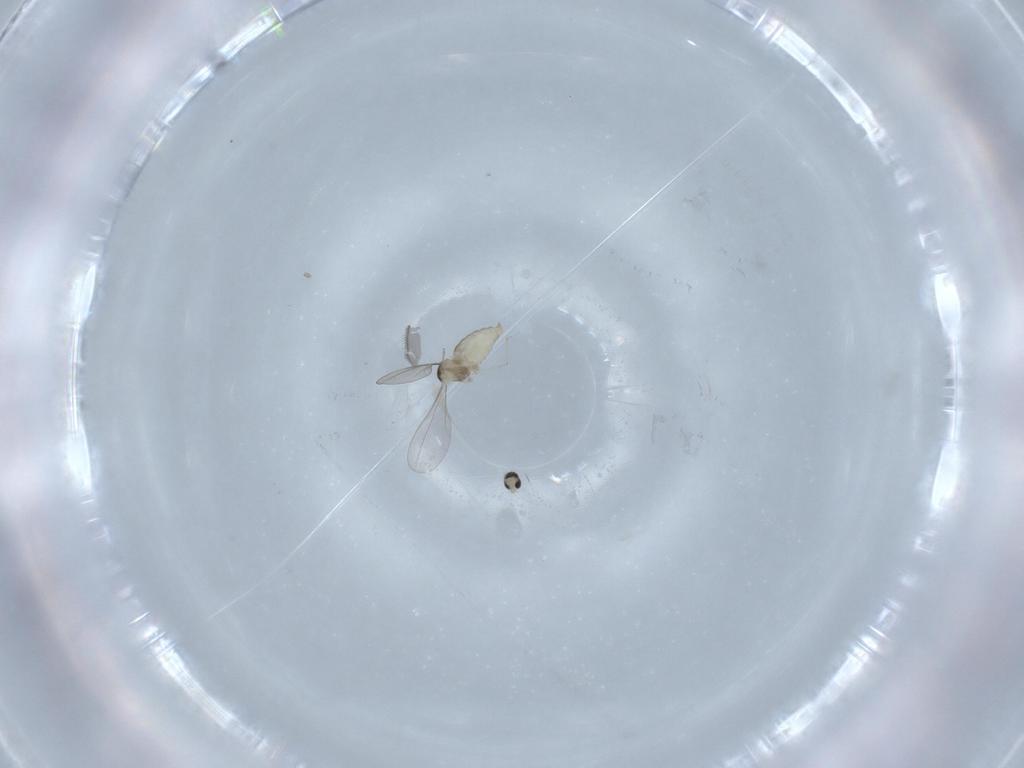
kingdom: Animalia
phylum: Arthropoda
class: Insecta
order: Diptera
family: Cecidomyiidae
